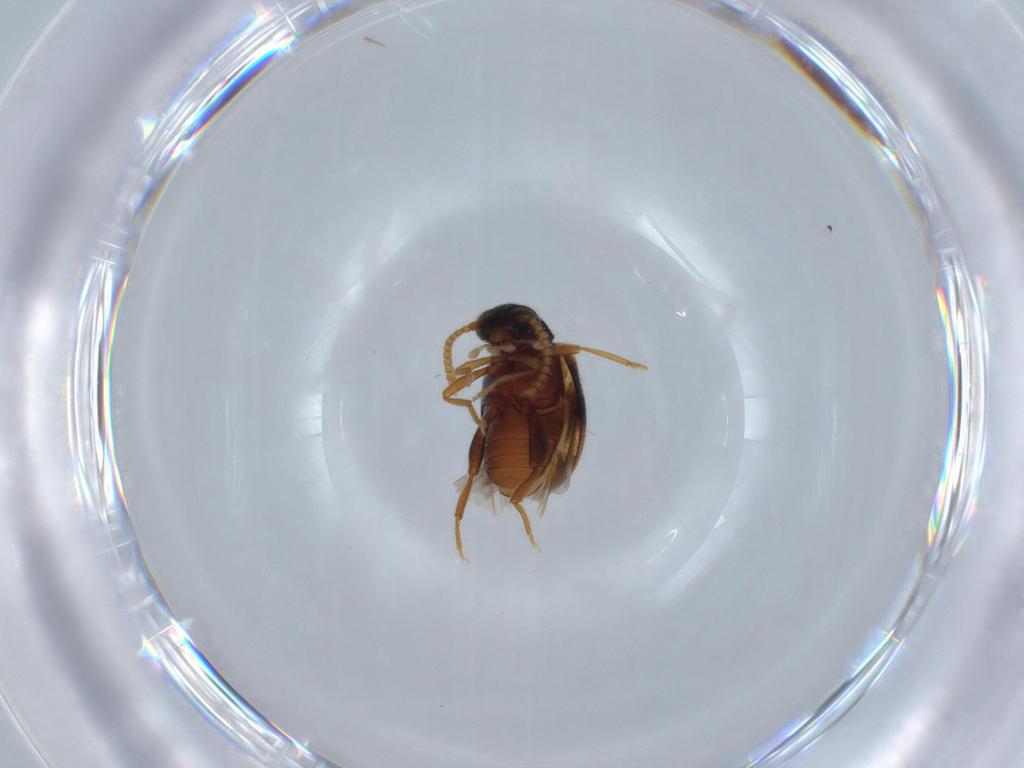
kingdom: Animalia
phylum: Arthropoda
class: Insecta
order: Coleoptera
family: Aderidae
